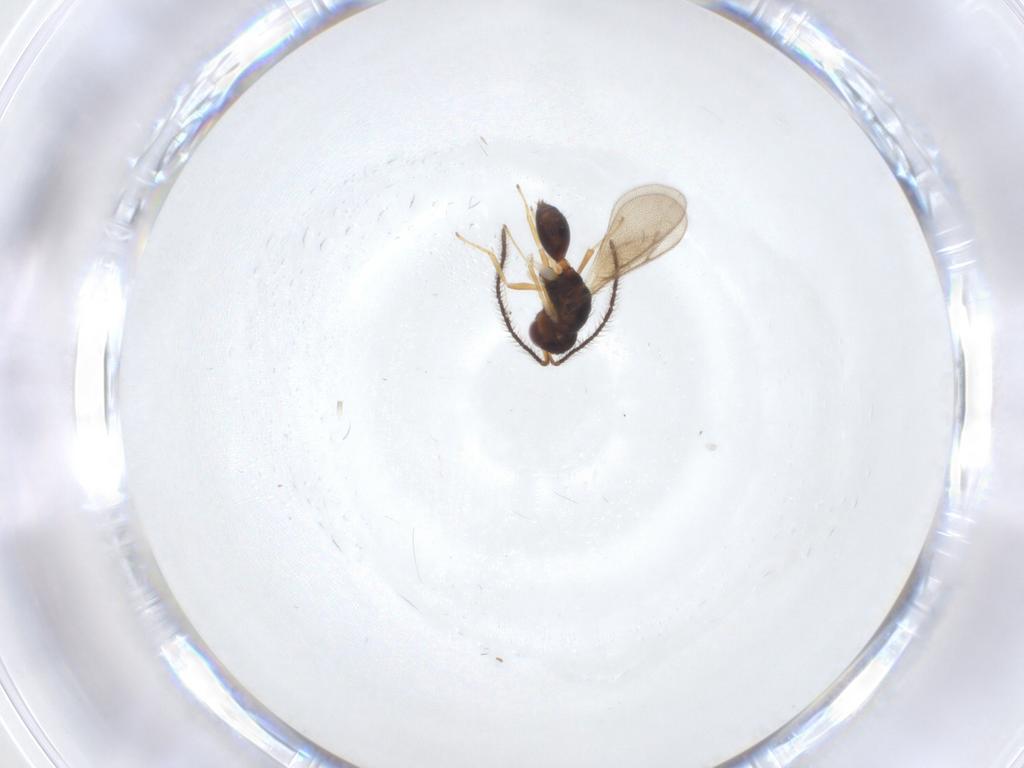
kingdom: Animalia
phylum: Arthropoda
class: Insecta
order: Hymenoptera
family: Diparidae
